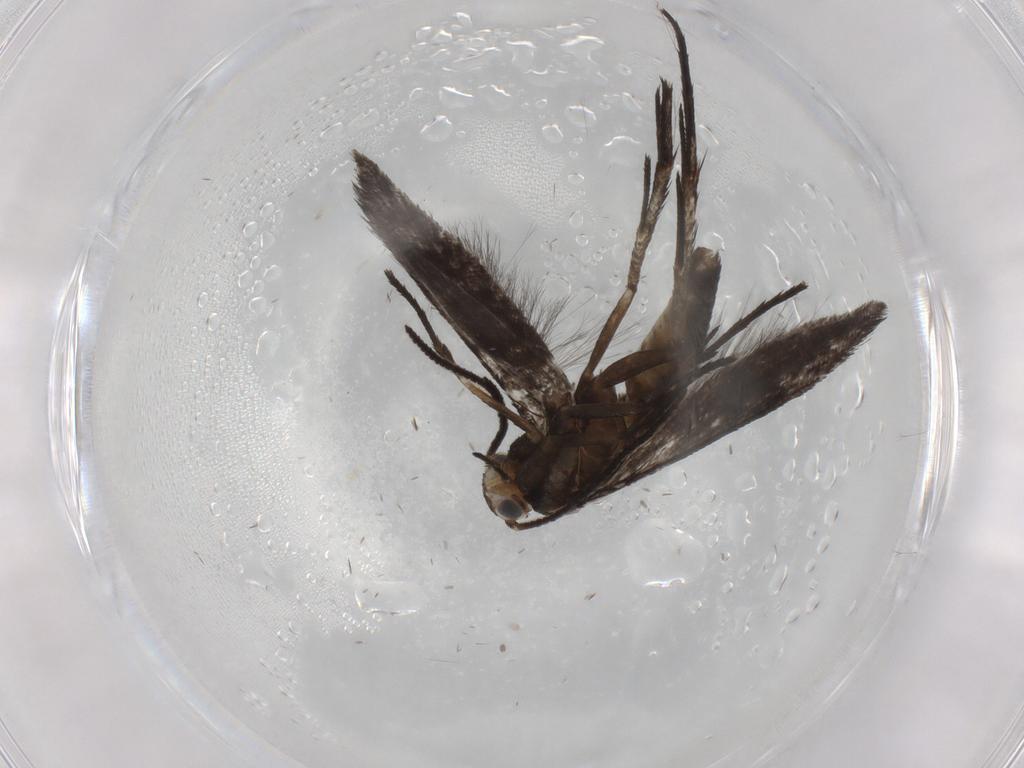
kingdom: Animalia
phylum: Arthropoda
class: Insecta
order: Lepidoptera
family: Schreckensteiniidae
